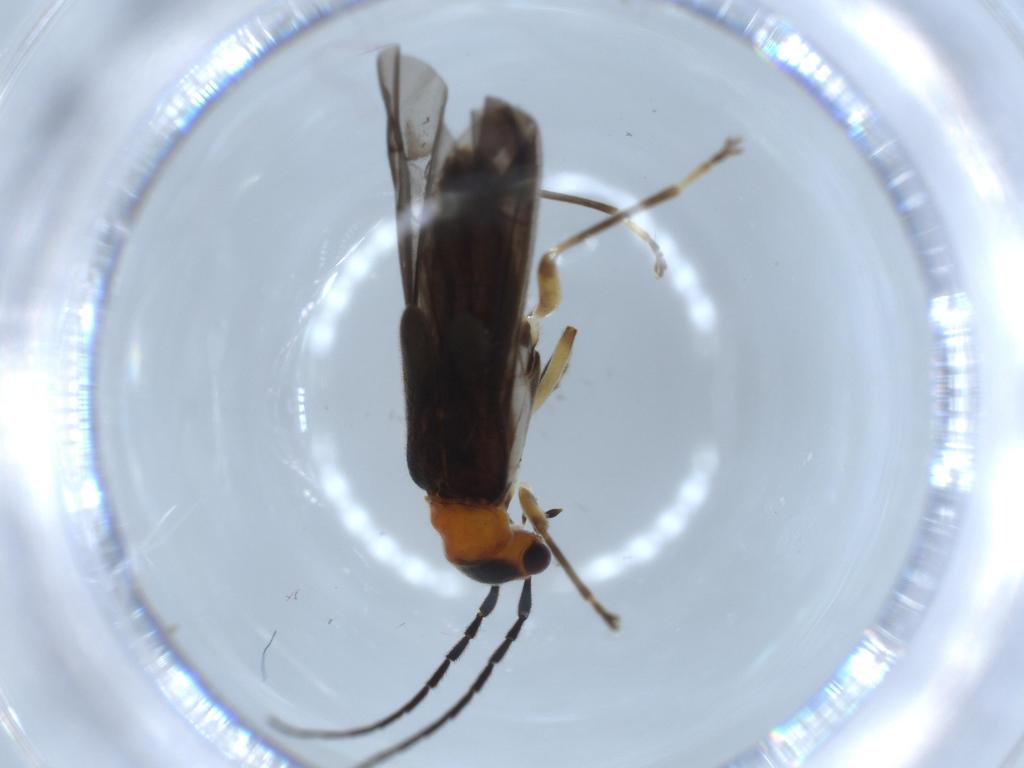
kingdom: Animalia
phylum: Arthropoda
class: Insecta
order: Coleoptera
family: Cantharidae
